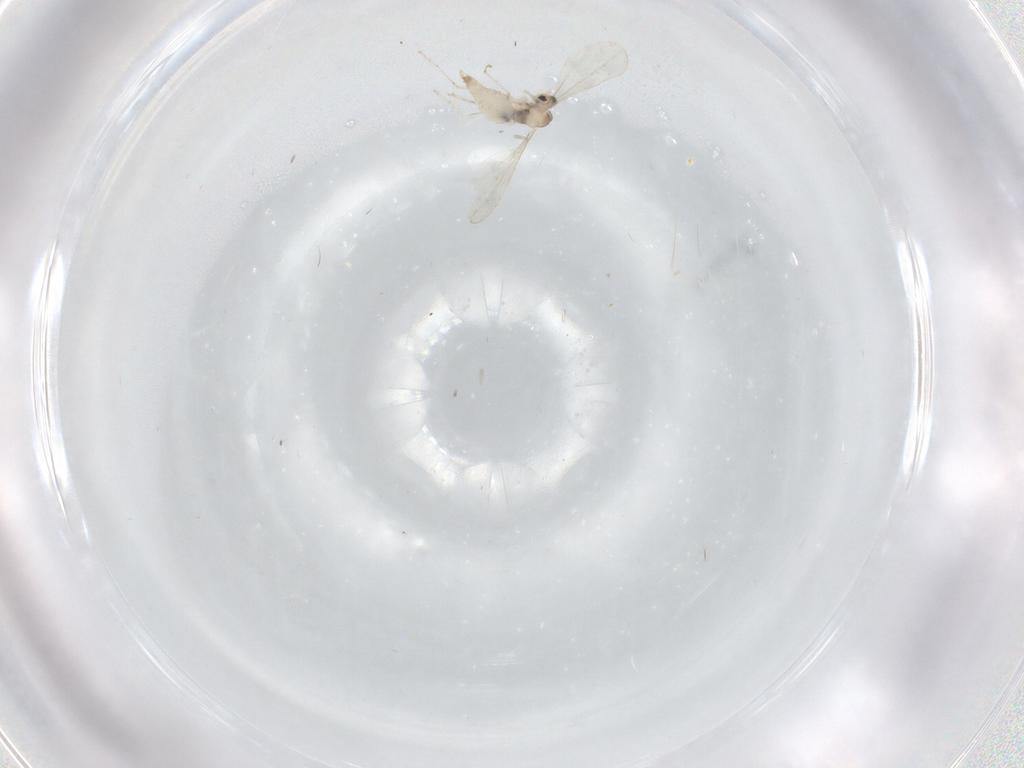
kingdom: Animalia
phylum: Arthropoda
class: Insecta
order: Diptera
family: Cecidomyiidae
